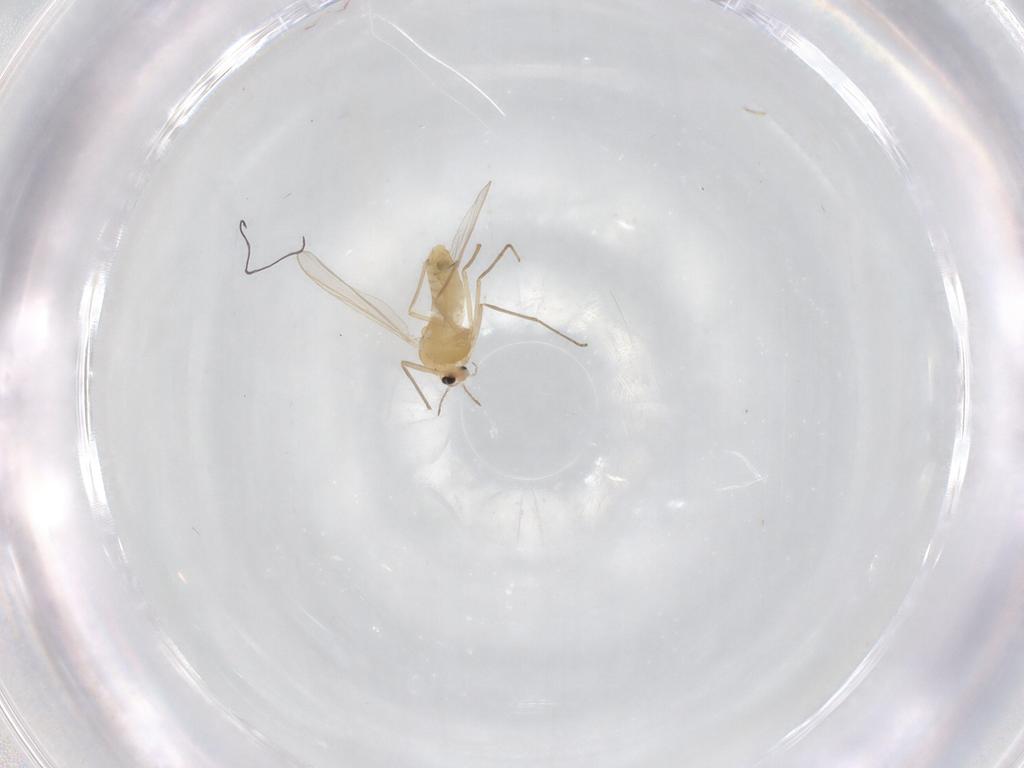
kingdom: Animalia
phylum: Arthropoda
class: Insecta
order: Diptera
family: Chironomidae
